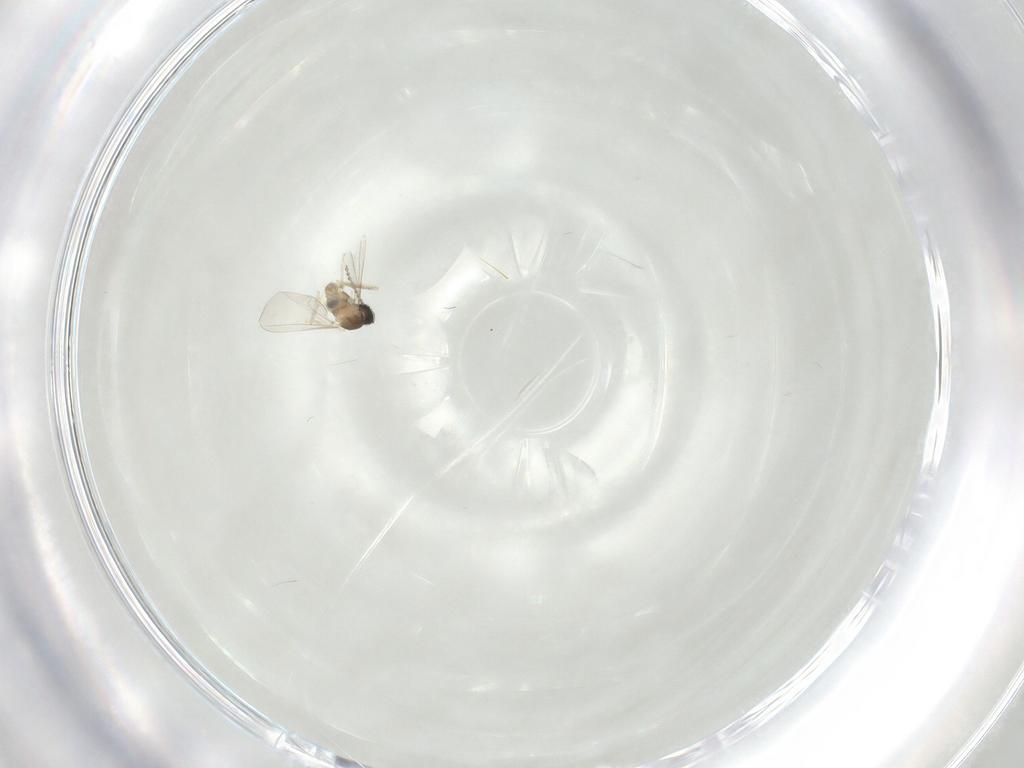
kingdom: Animalia
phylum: Arthropoda
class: Insecta
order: Diptera
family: Cecidomyiidae
